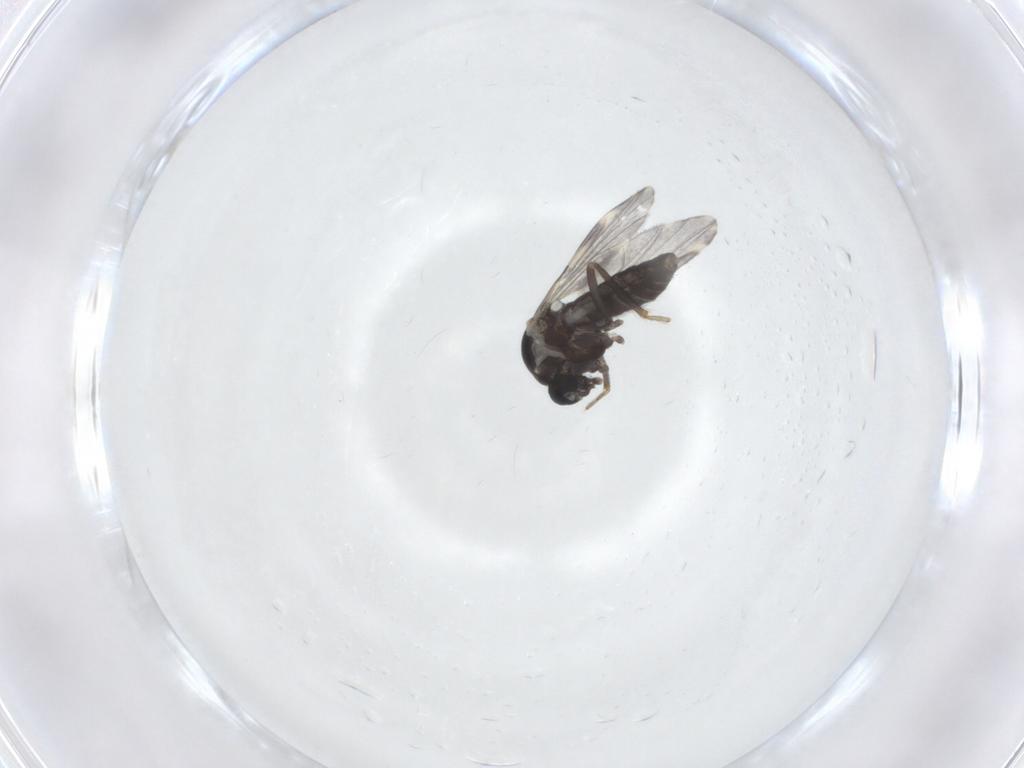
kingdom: Animalia
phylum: Arthropoda
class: Insecta
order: Diptera
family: Ceratopogonidae
